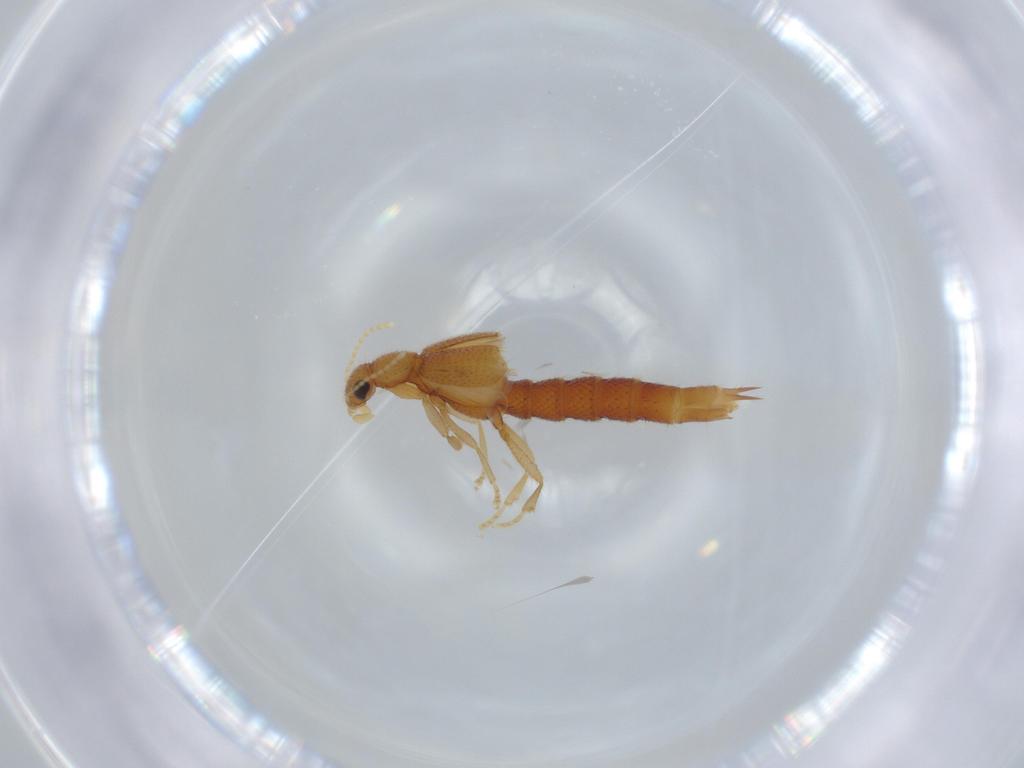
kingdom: Animalia
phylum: Arthropoda
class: Insecta
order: Coleoptera
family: Staphylinidae
